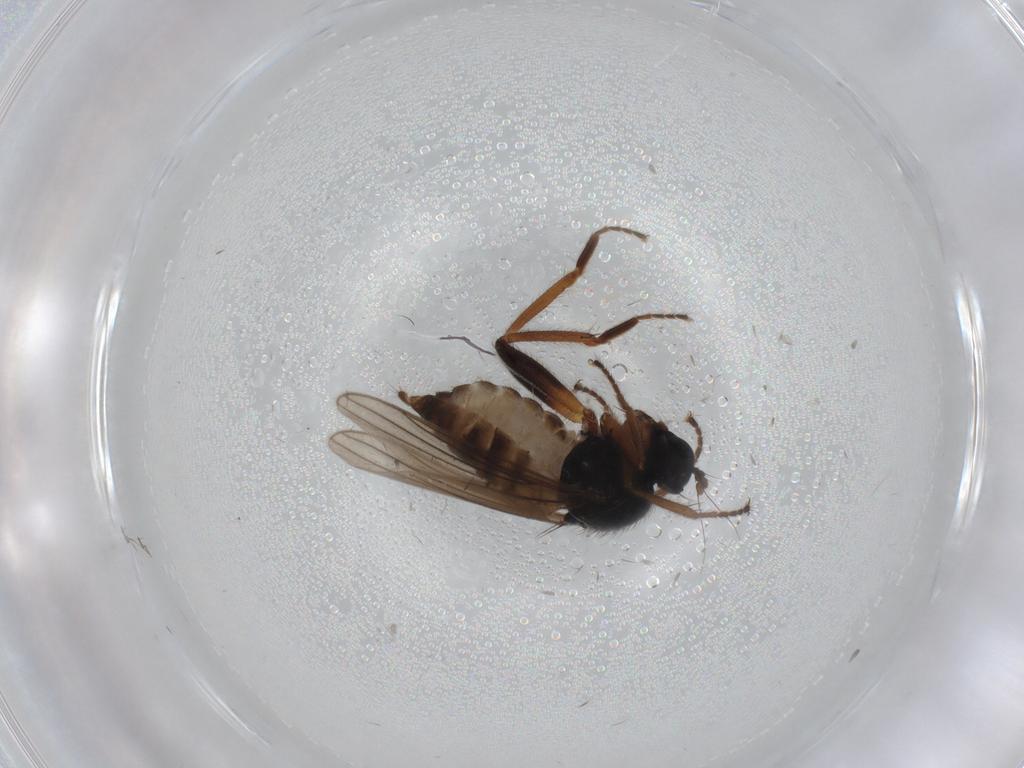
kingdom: Animalia
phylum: Arthropoda
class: Insecta
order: Diptera
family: Hybotidae
